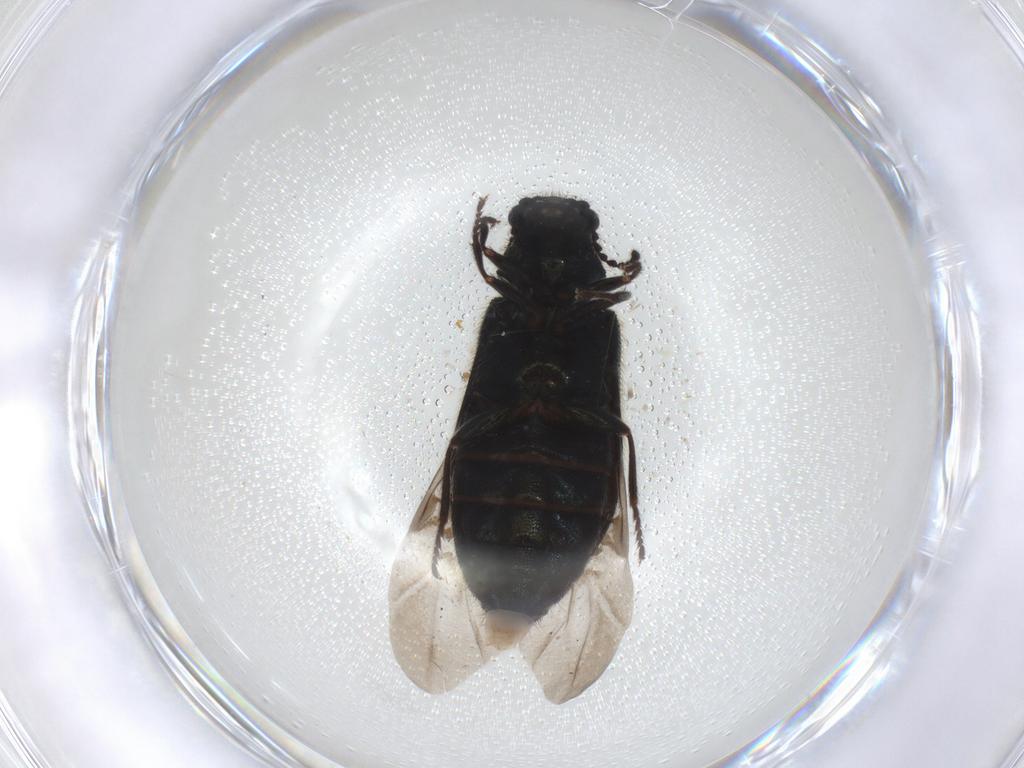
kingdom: Animalia
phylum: Arthropoda
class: Insecta
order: Coleoptera
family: Melyridae
